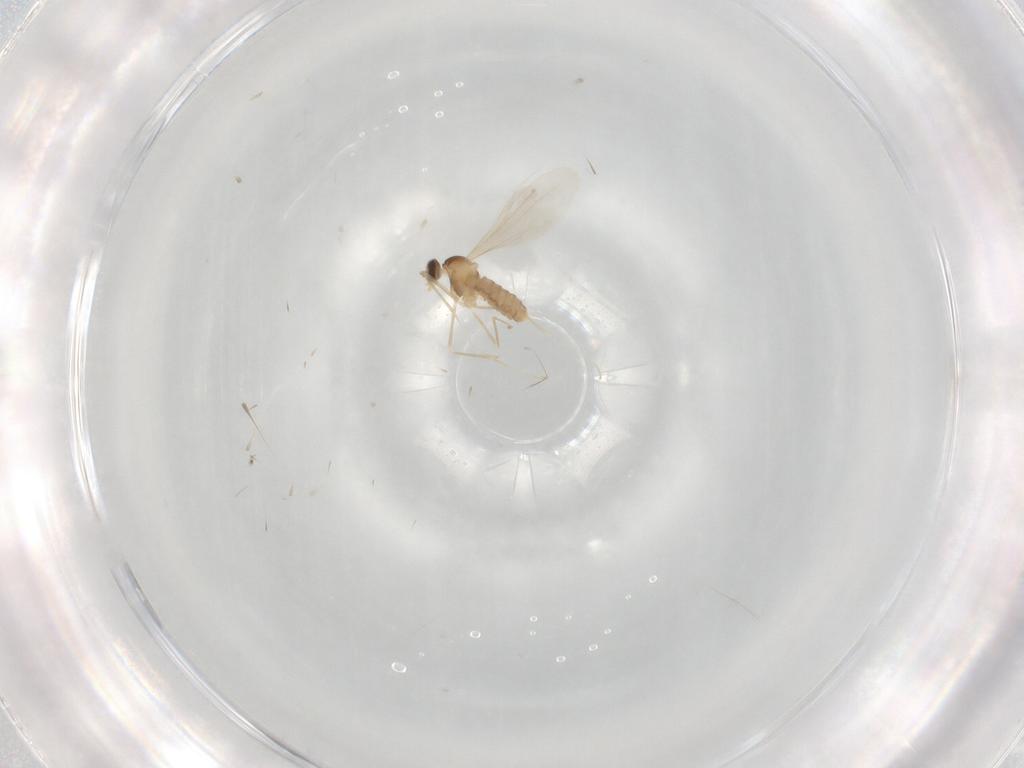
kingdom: Animalia
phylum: Arthropoda
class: Insecta
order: Diptera
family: Cecidomyiidae
